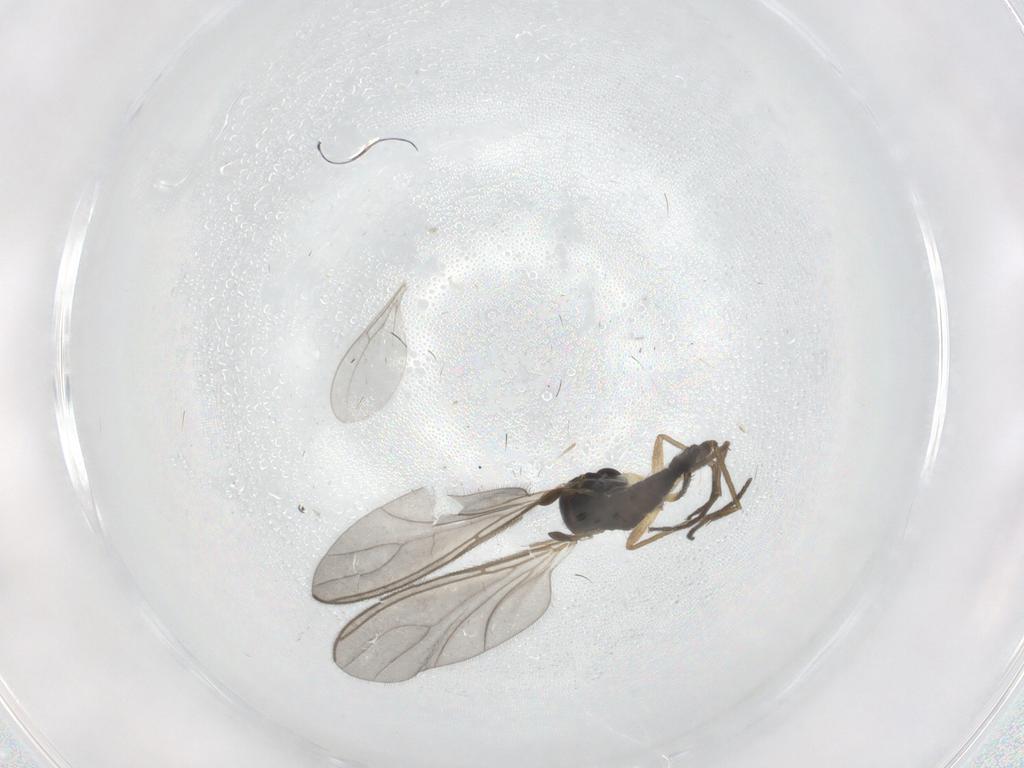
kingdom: Animalia
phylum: Arthropoda
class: Insecta
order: Diptera
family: Sciaridae
